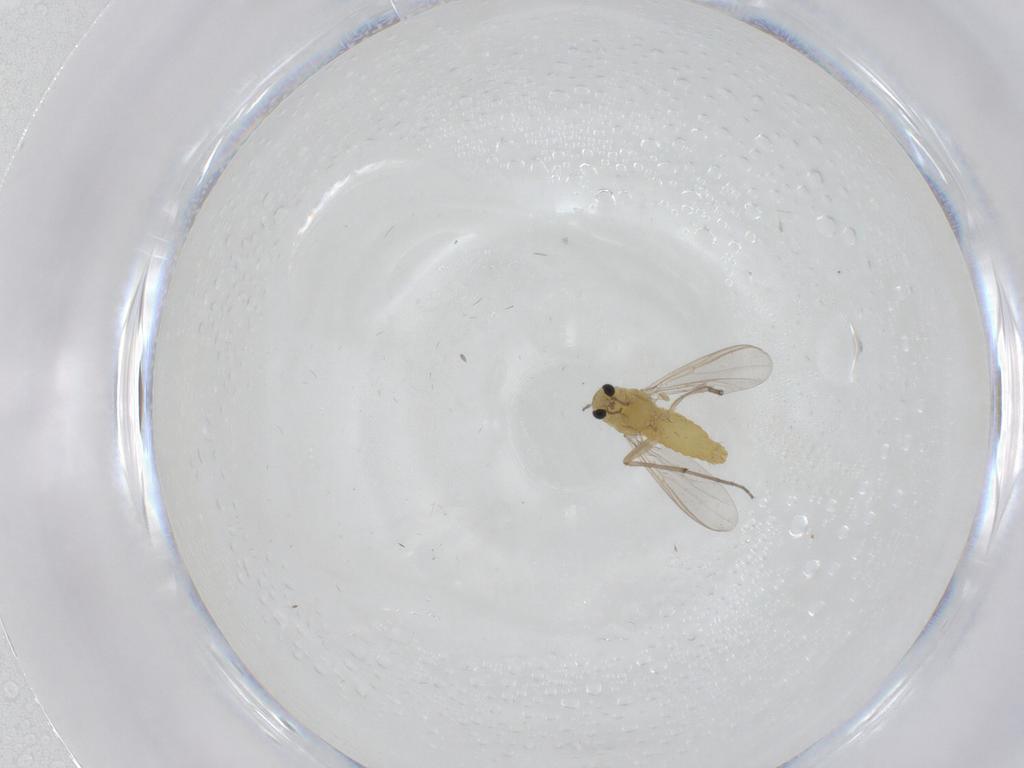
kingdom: Animalia
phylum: Arthropoda
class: Insecta
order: Diptera
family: Chironomidae
